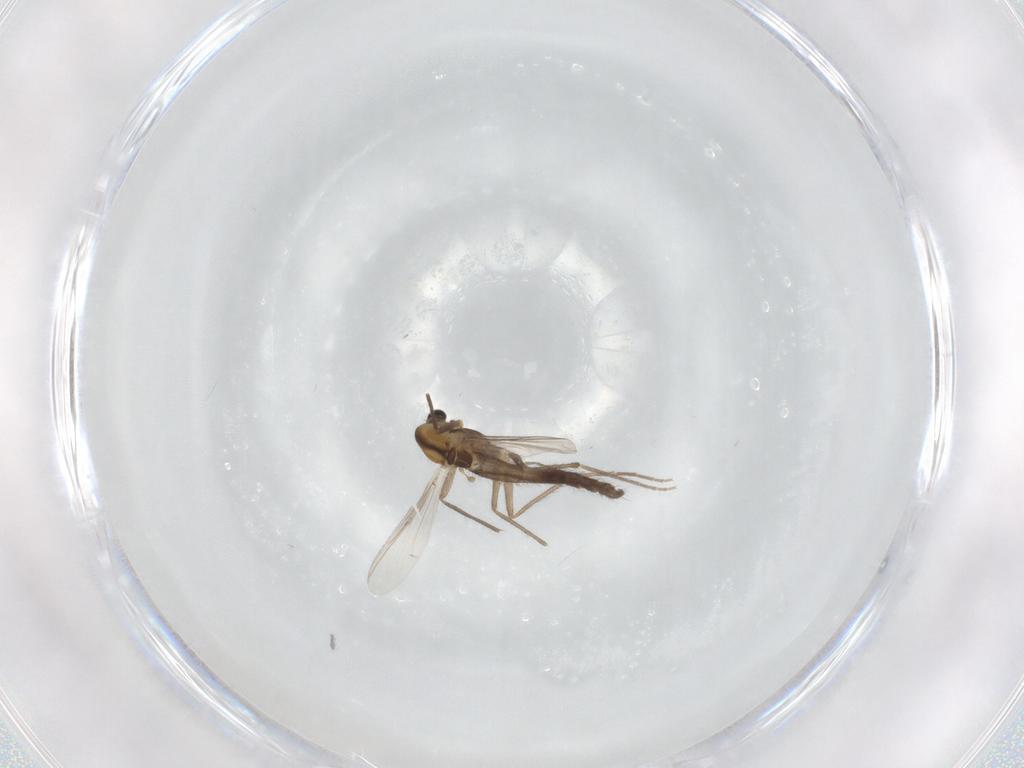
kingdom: Animalia
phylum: Arthropoda
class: Insecta
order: Diptera
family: Chironomidae
